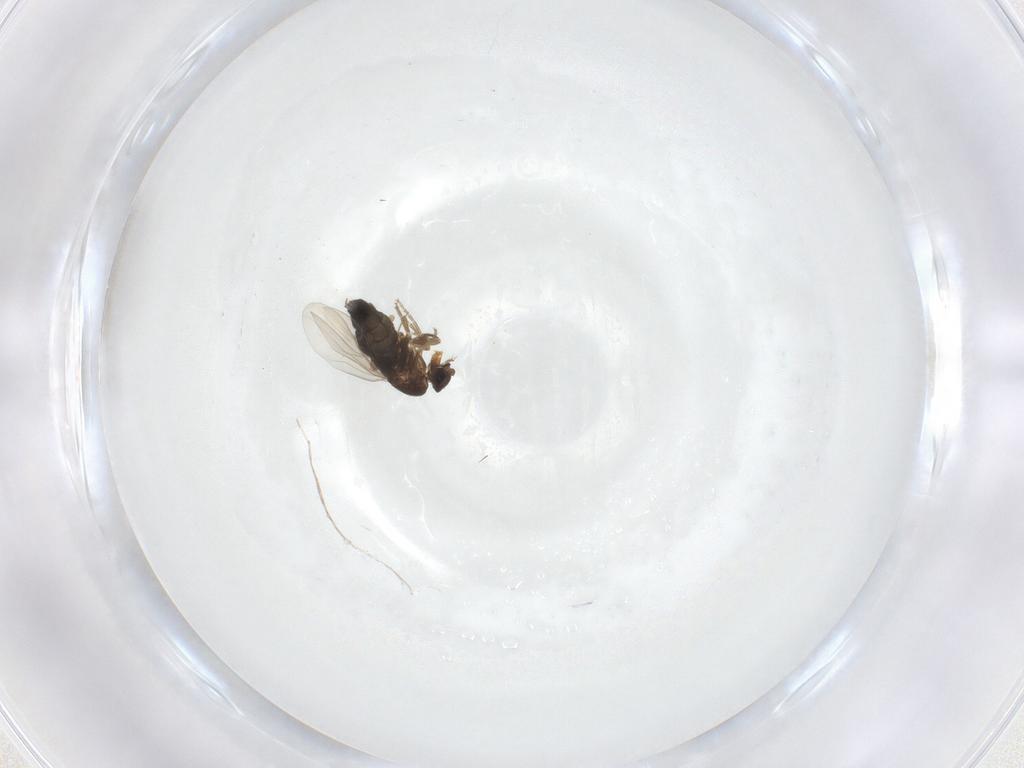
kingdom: Animalia
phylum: Arthropoda
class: Insecta
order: Diptera
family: Phoridae
